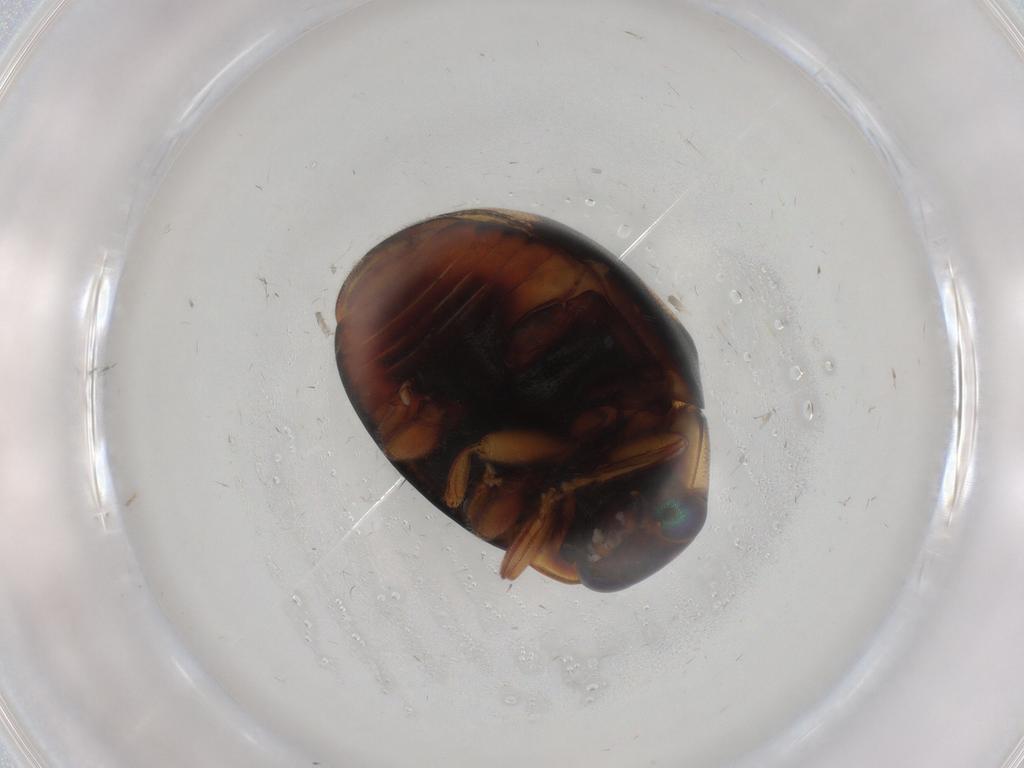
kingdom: Animalia
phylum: Arthropoda
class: Insecta
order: Coleoptera
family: Coccinellidae
